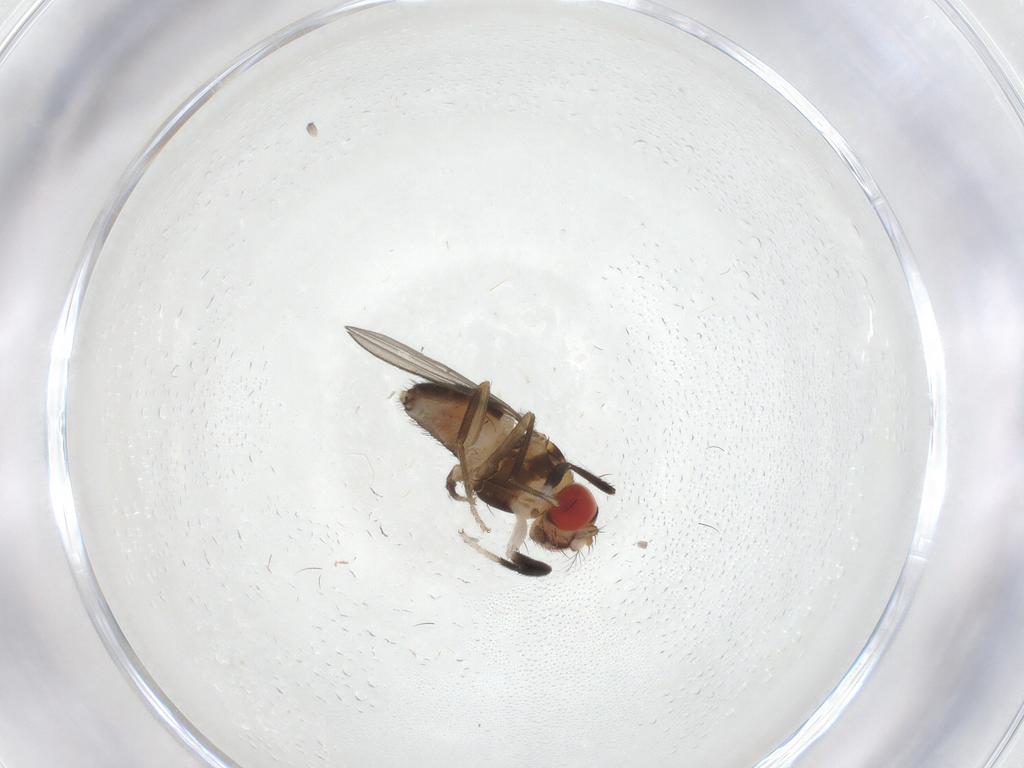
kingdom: Animalia
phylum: Arthropoda
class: Insecta
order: Diptera
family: Drosophilidae
